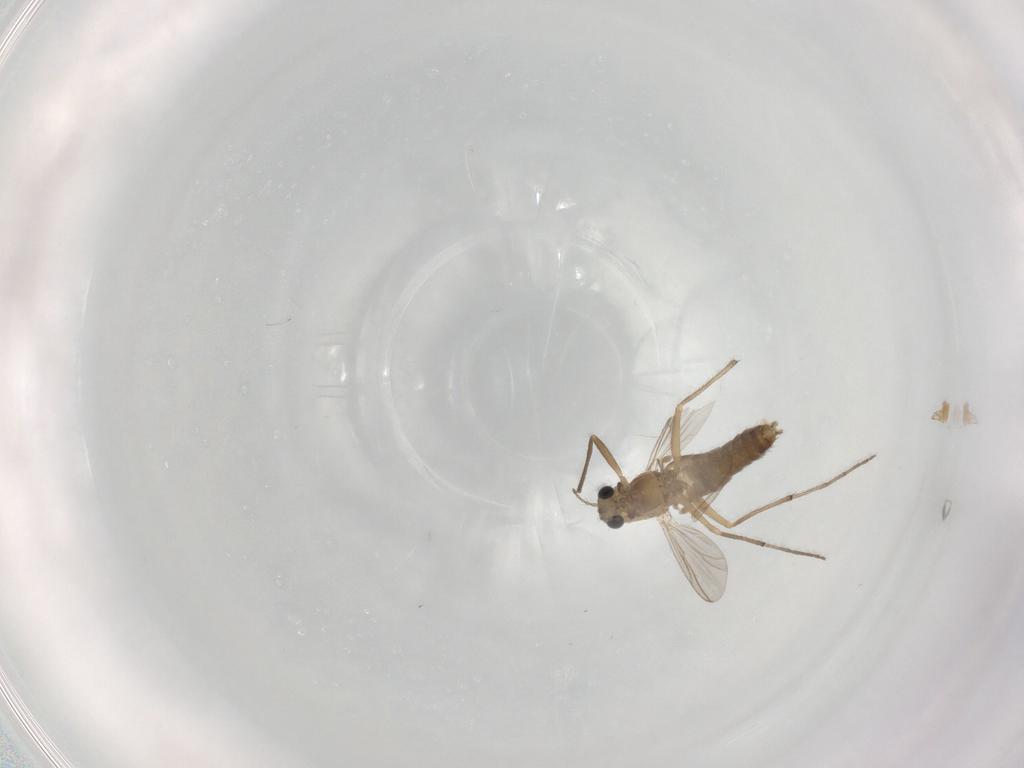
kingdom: Animalia
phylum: Arthropoda
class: Insecta
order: Diptera
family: Chironomidae
